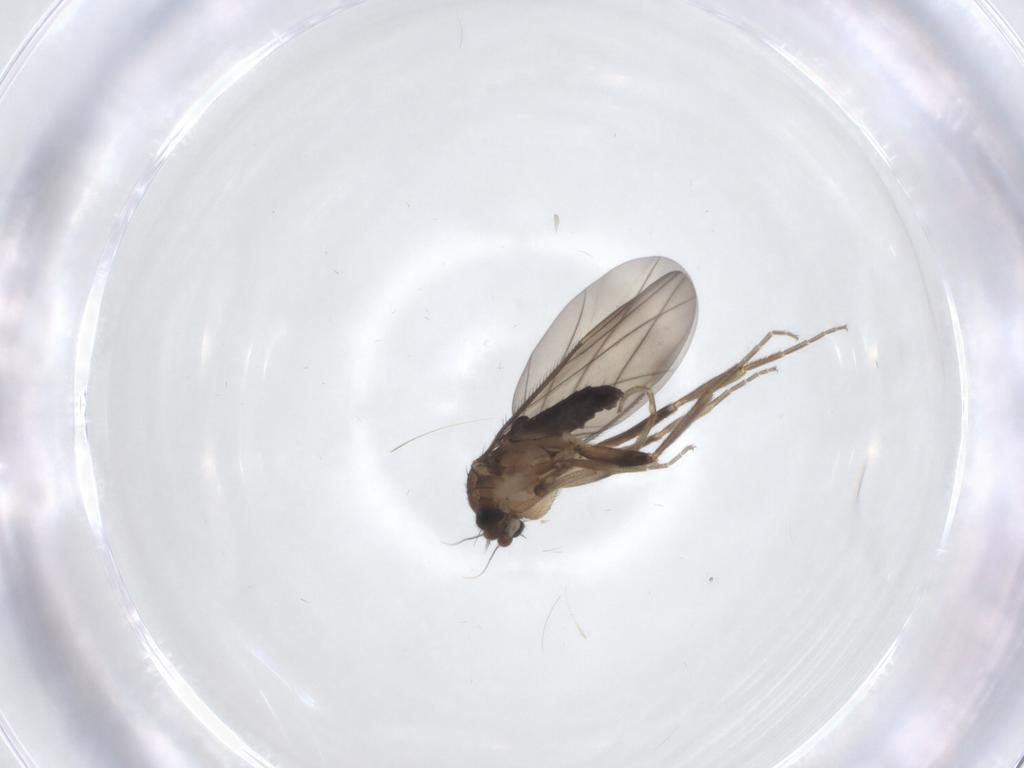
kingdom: Animalia
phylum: Arthropoda
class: Insecta
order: Diptera
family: Phoridae
